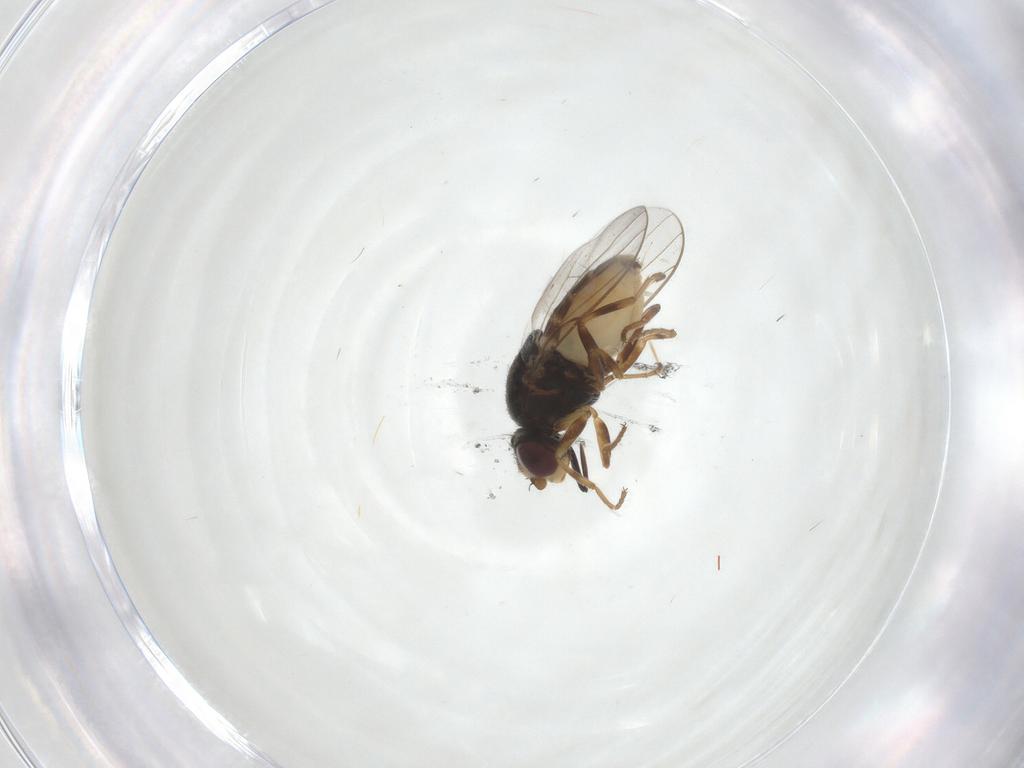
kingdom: Animalia
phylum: Arthropoda
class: Insecta
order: Diptera
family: Chloropidae
